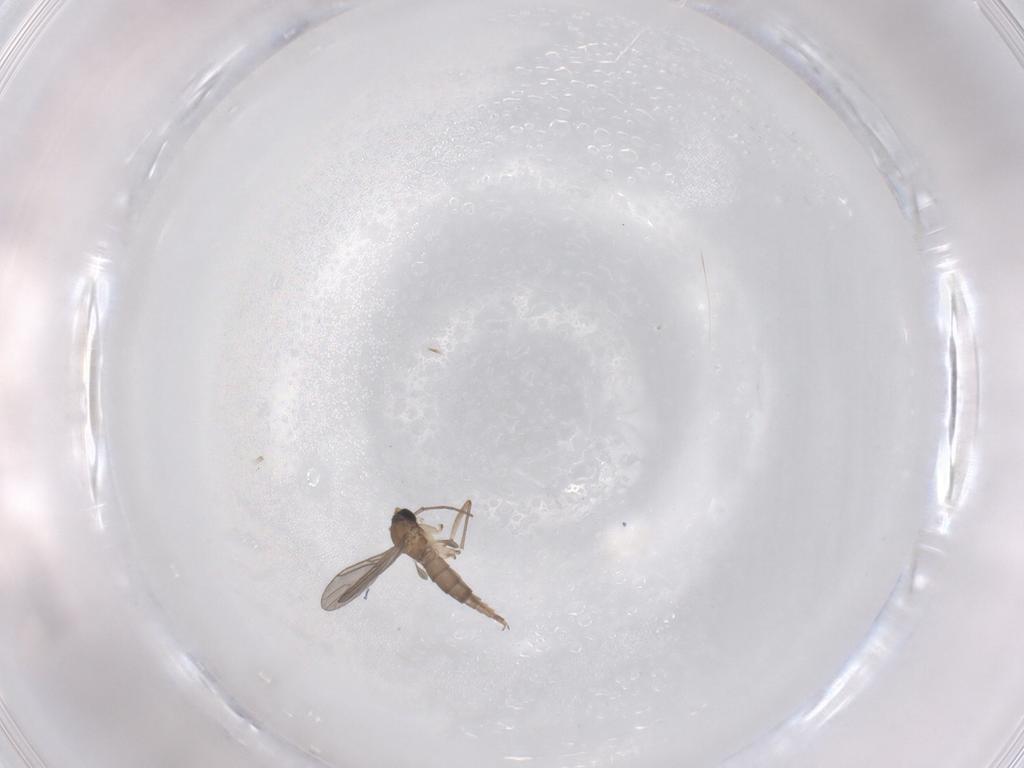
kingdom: Animalia
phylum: Arthropoda
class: Insecta
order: Diptera
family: Sciaridae
